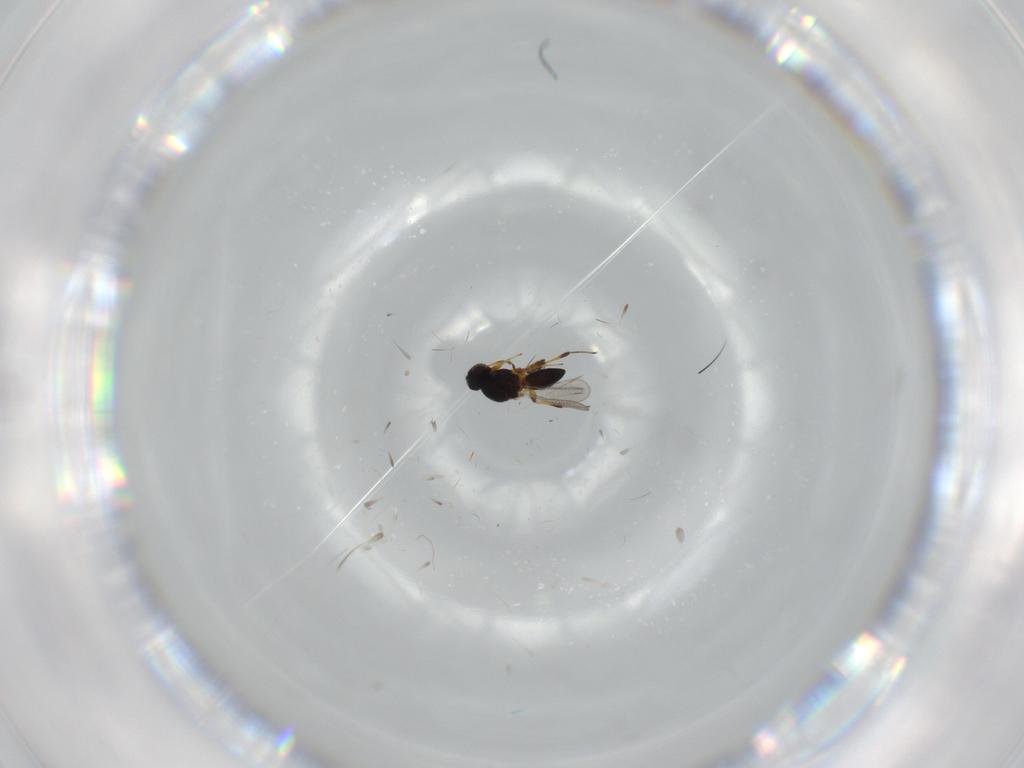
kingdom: Animalia
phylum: Arthropoda
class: Insecta
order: Hymenoptera
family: Platygastridae
